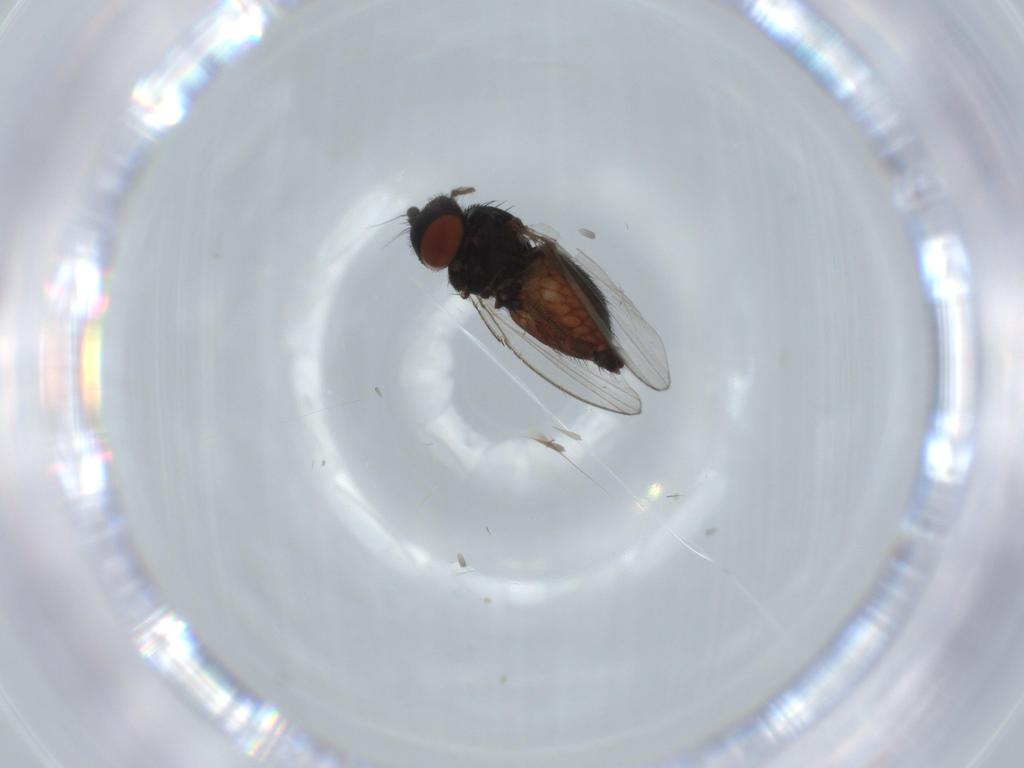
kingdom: Animalia
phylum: Arthropoda
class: Insecta
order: Diptera
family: Milichiidae
